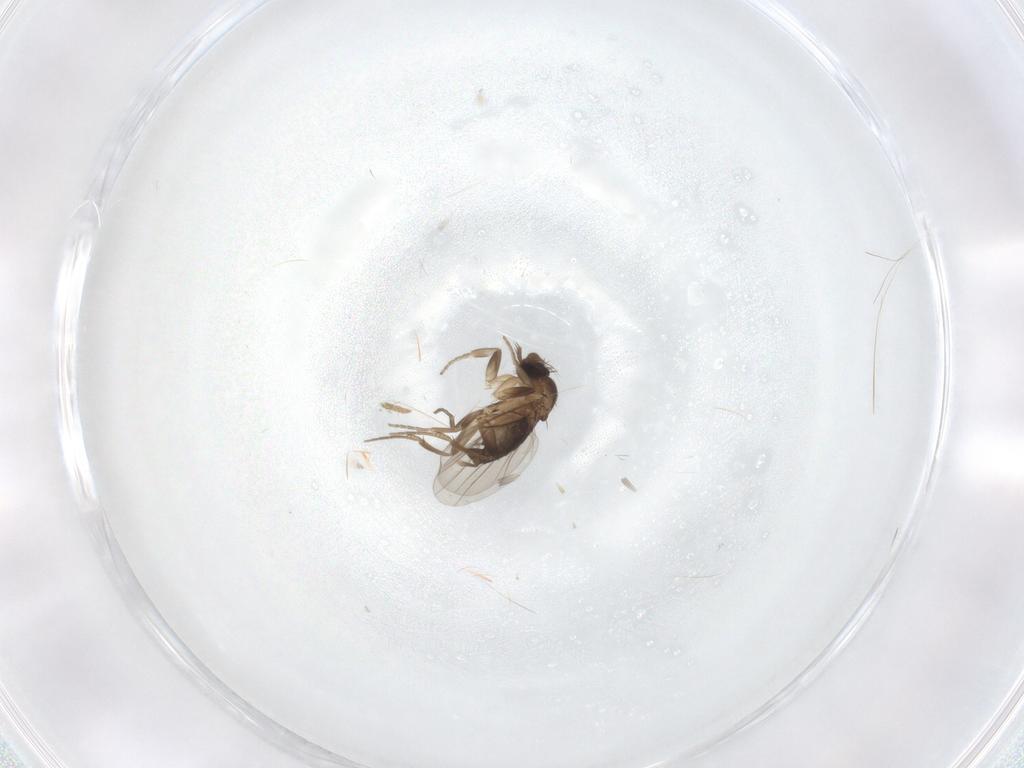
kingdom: Animalia
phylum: Arthropoda
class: Insecta
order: Diptera
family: Phoridae
